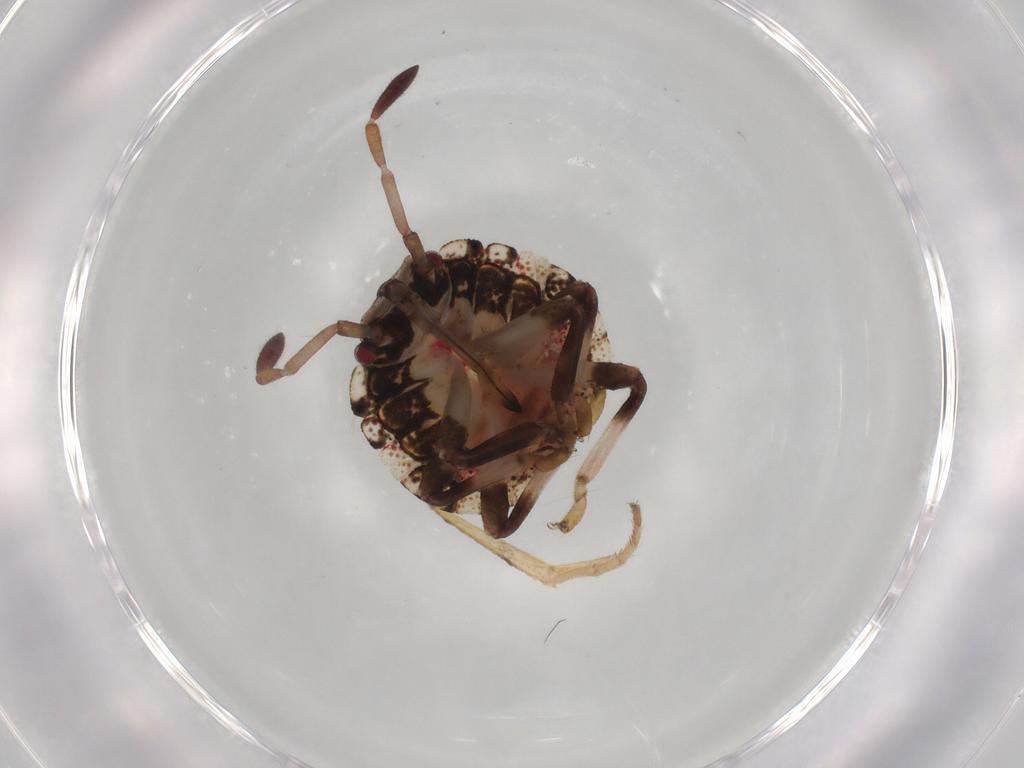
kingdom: Animalia
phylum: Arthropoda
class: Insecta
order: Hemiptera
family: Pentatomidae
